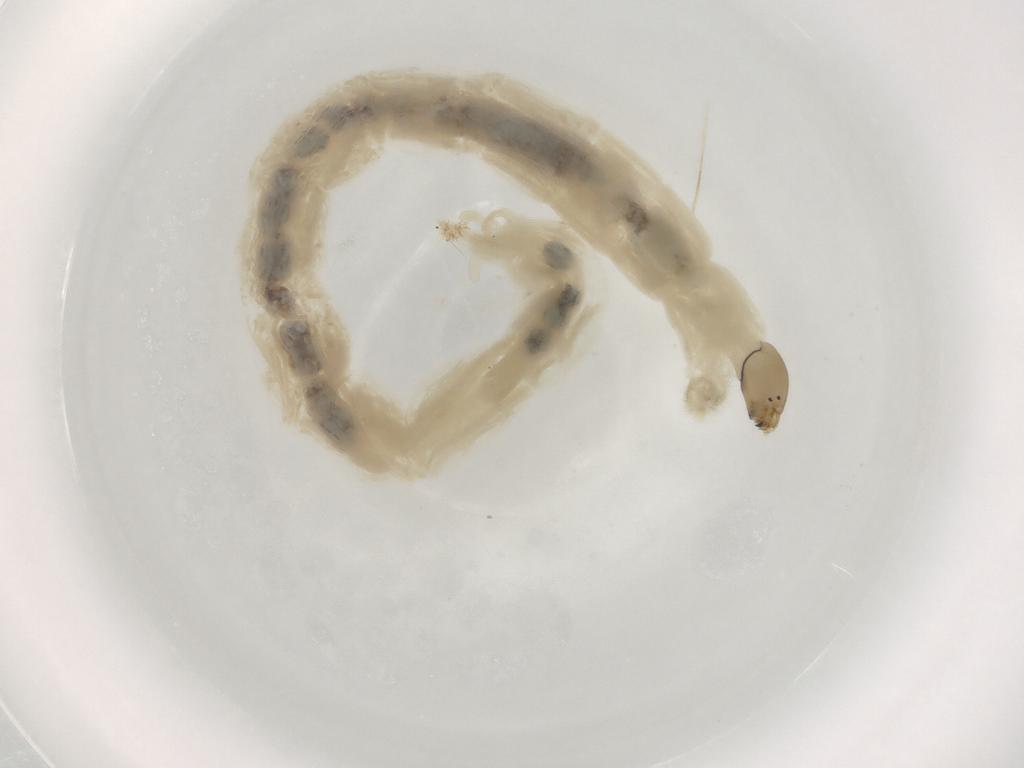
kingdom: Animalia
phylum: Arthropoda
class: Insecta
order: Diptera
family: Chironomidae
